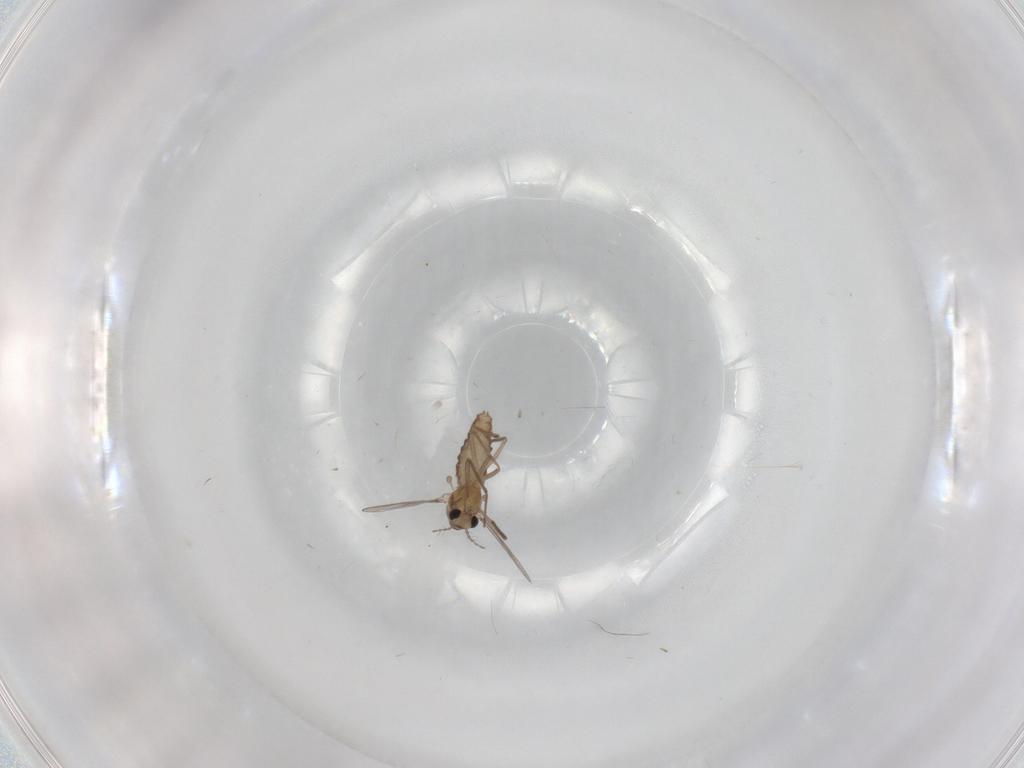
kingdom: Animalia
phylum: Arthropoda
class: Insecta
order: Diptera
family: Chironomidae
